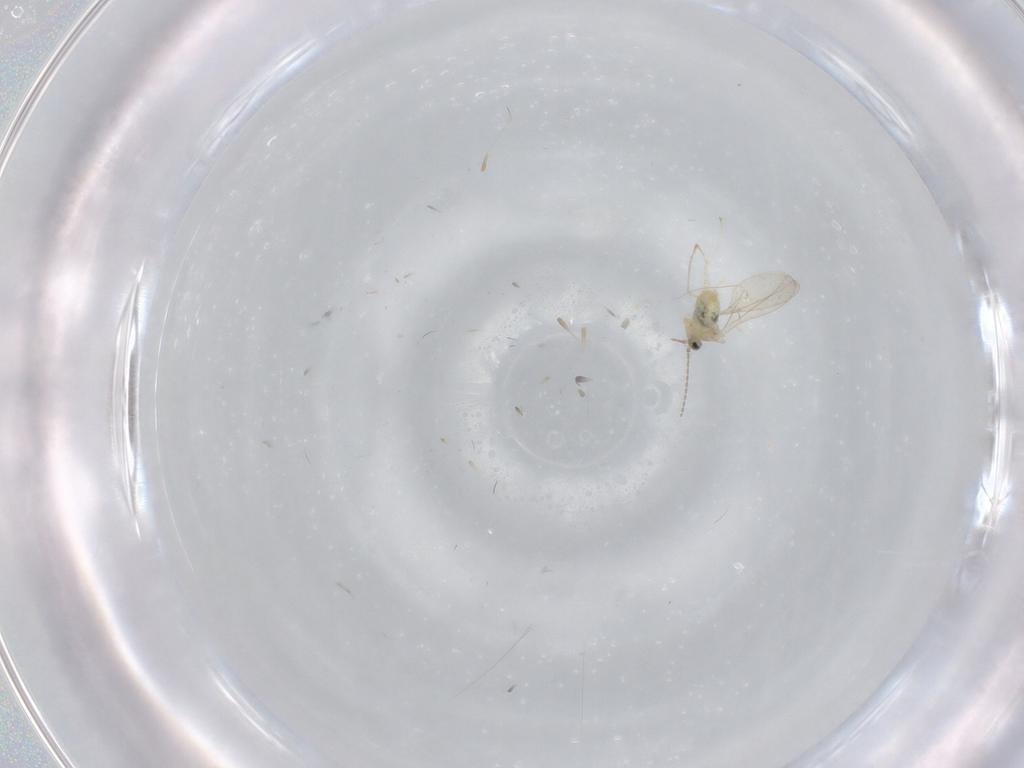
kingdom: Animalia
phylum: Arthropoda
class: Insecta
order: Diptera
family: Cecidomyiidae
